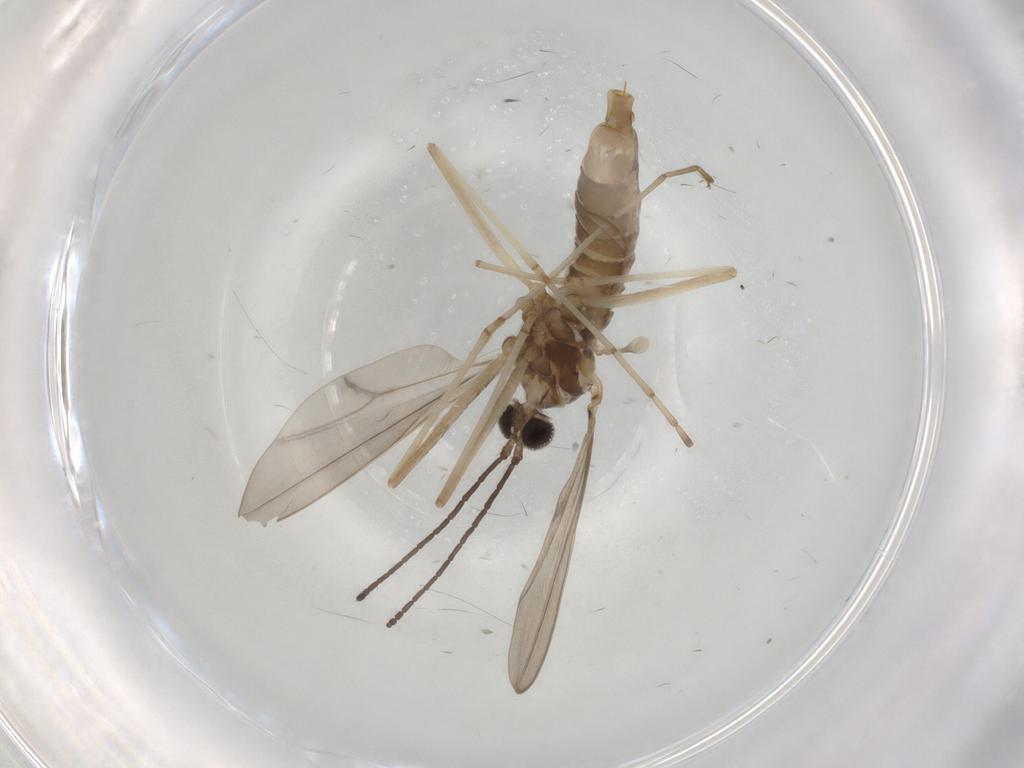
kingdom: Animalia
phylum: Arthropoda
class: Insecta
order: Diptera
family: Cecidomyiidae
